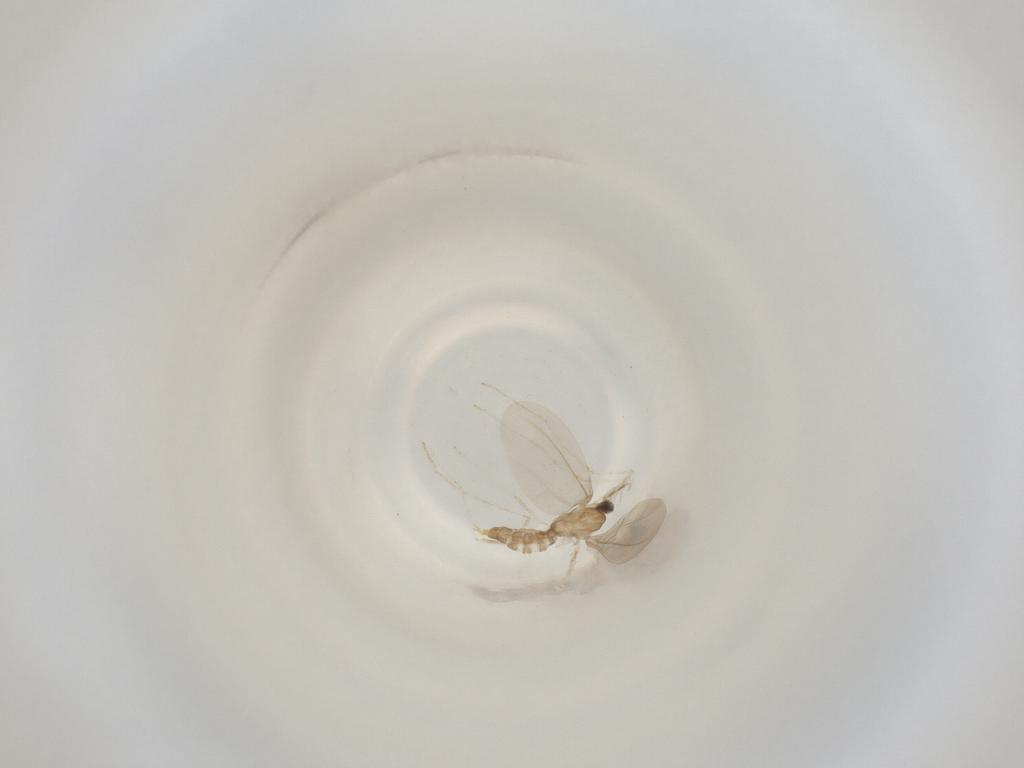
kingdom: Animalia
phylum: Arthropoda
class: Insecta
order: Diptera
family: Cecidomyiidae
